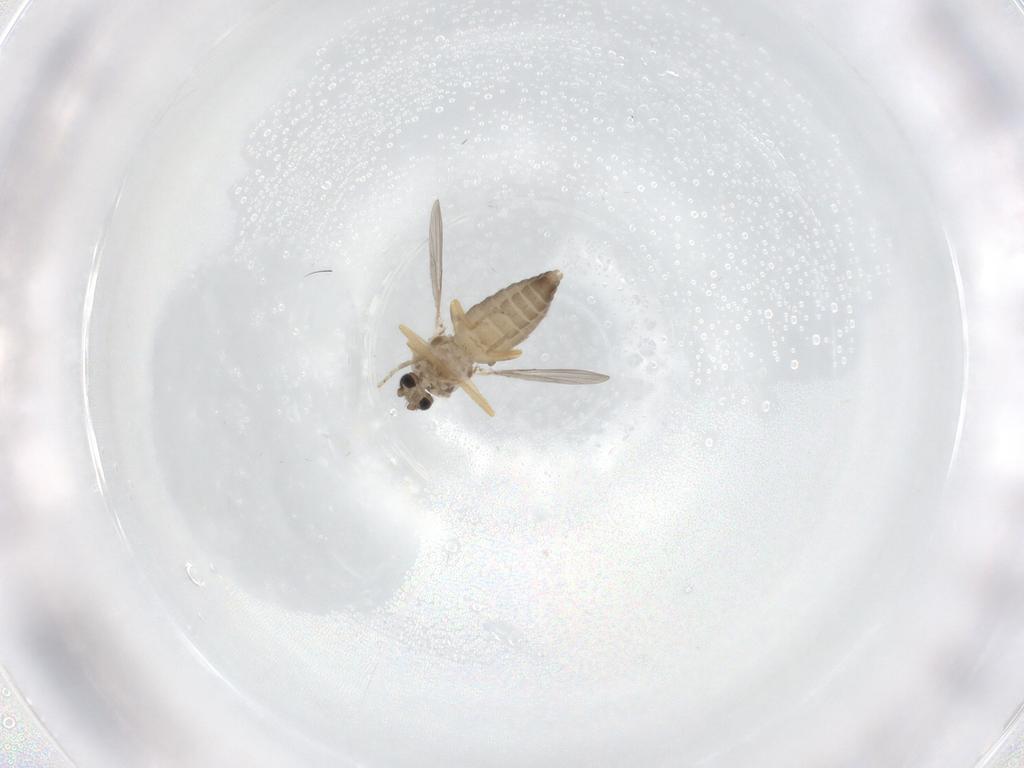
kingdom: Animalia
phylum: Arthropoda
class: Insecta
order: Diptera
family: Ceratopogonidae
